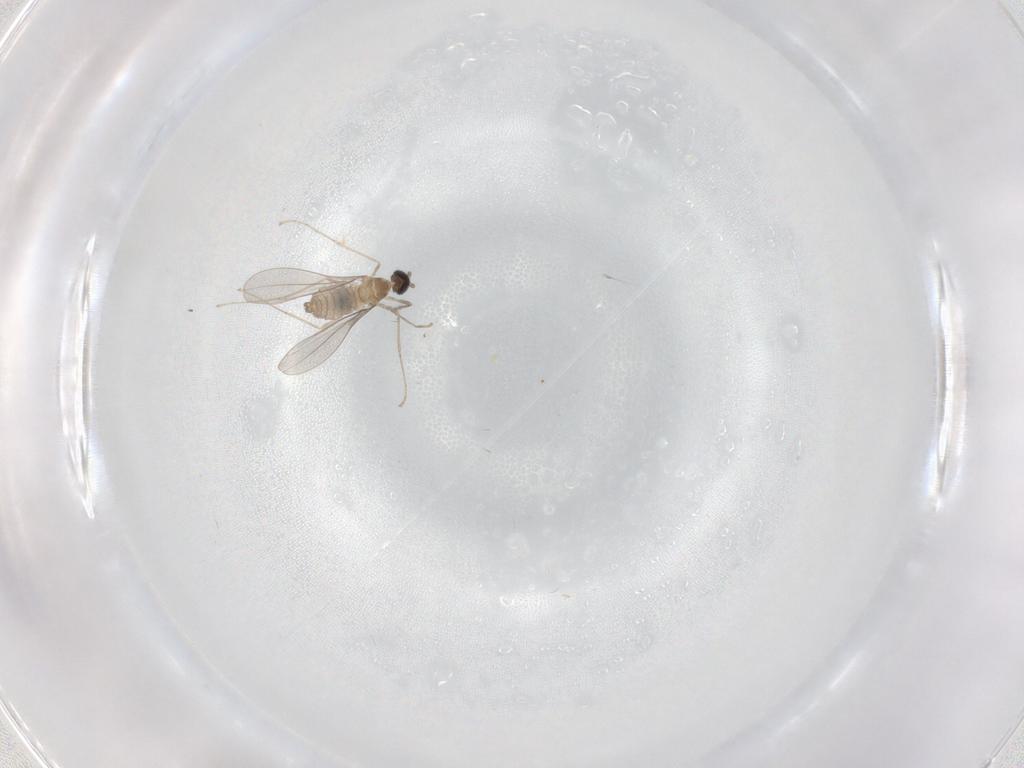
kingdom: Animalia
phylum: Arthropoda
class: Insecta
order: Diptera
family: Cecidomyiidae
